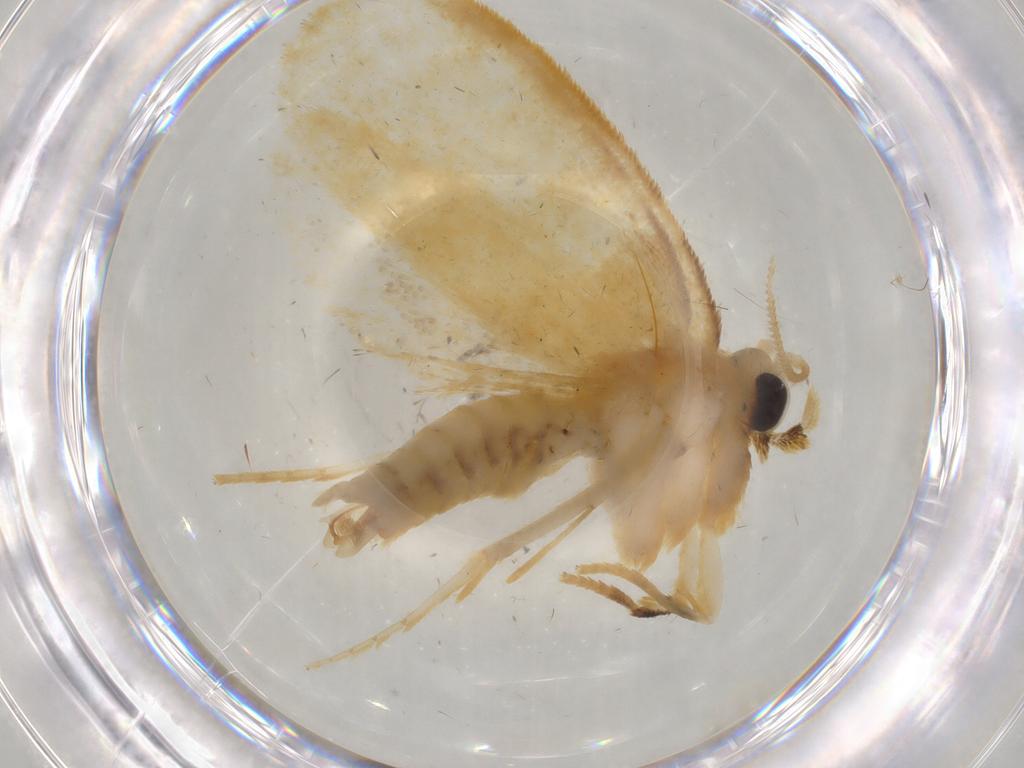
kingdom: Animalia
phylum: Arthropoda
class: Insecta
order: Lepidoptera
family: Psychidae
